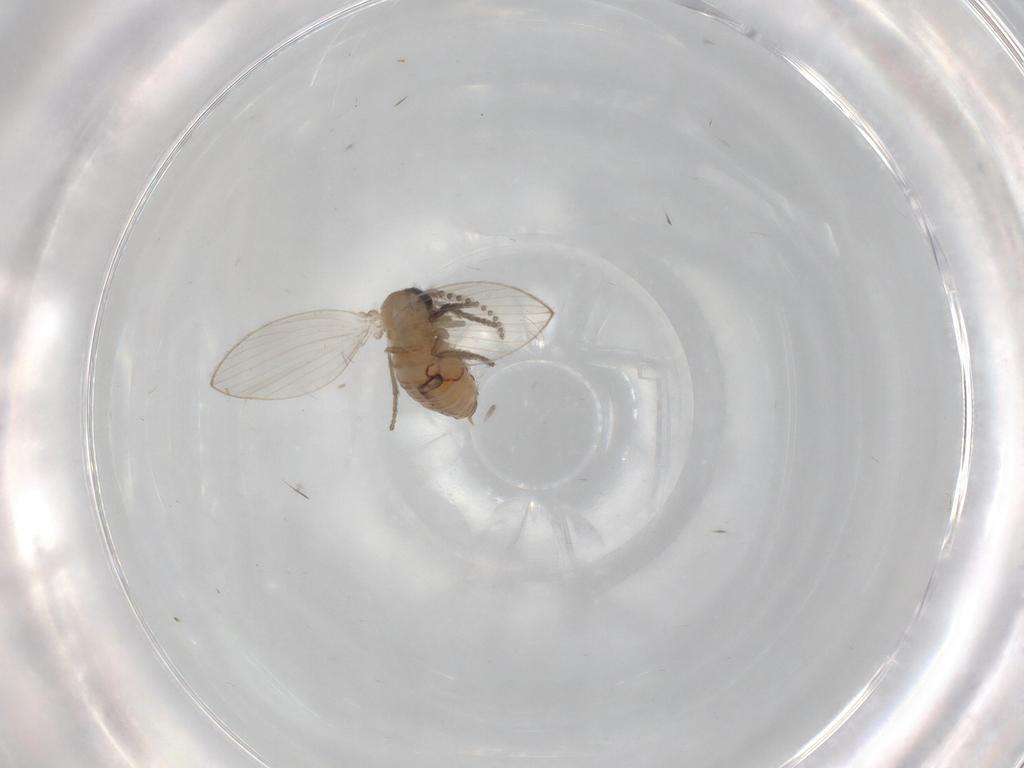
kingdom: Animalia
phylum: Arthropoda
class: Insecta
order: Diptera
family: Psychodidae
